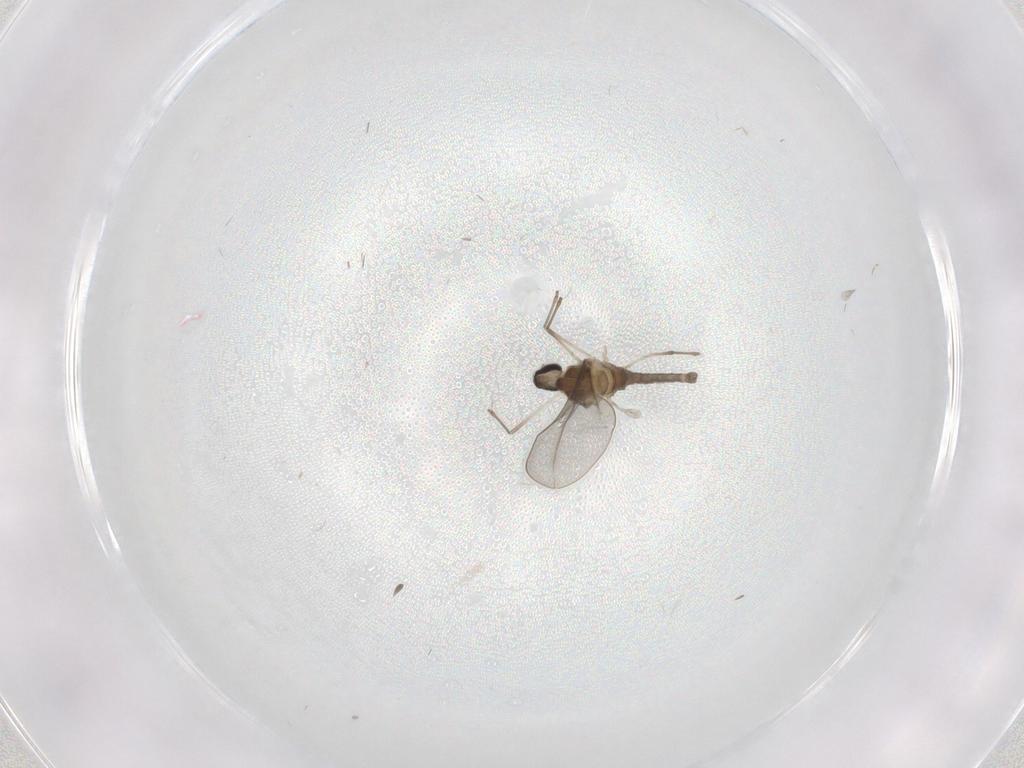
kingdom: Animalia
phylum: Arthropoda
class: Insecta
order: Diptera
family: Cecidomyiidae
